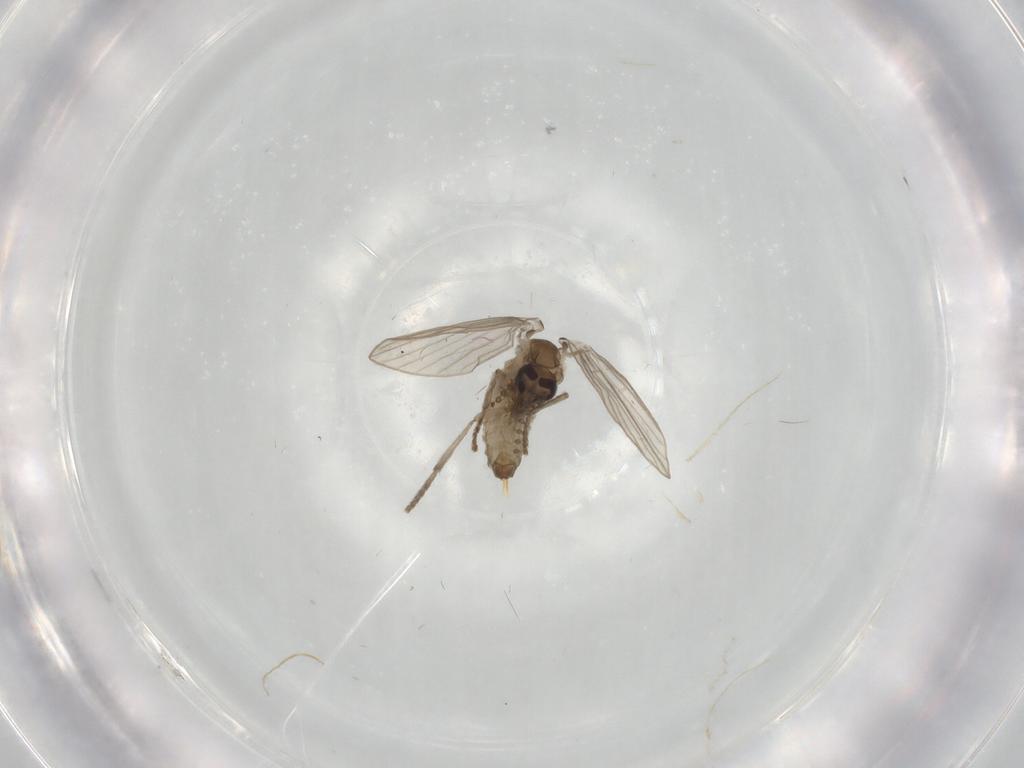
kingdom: Animalia
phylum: Arthropoda
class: Insecta
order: Diptera
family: Psychodidae
